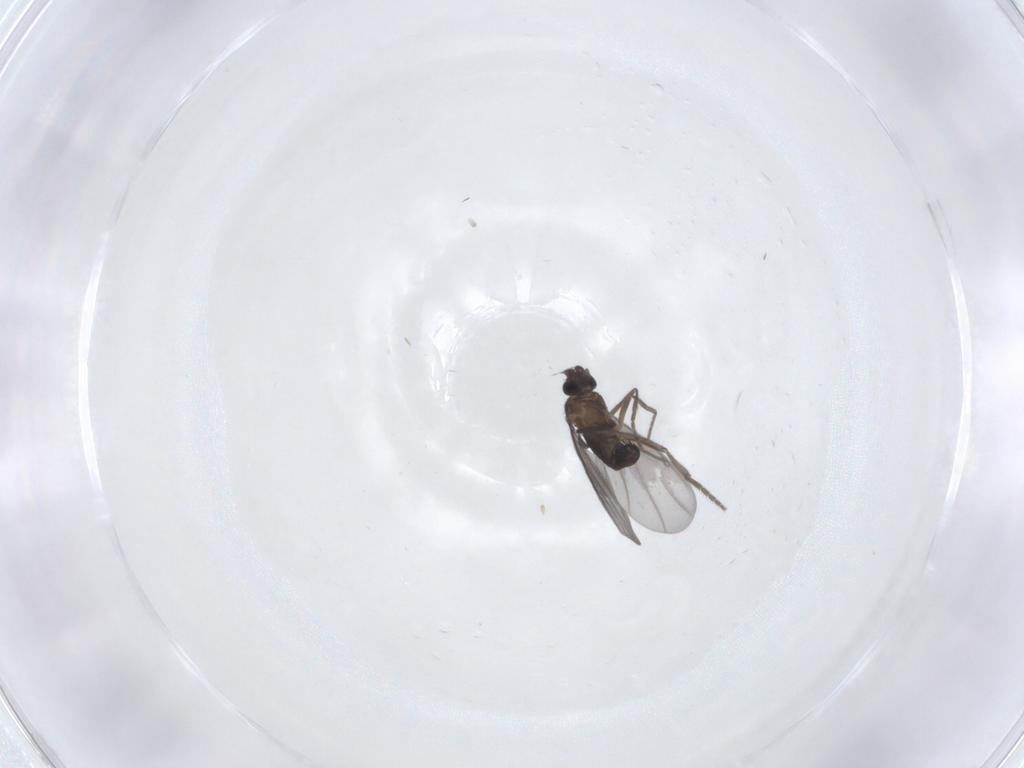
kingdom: Animalia
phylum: Arthropoda
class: Insecta
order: Diptera
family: Phoridae
